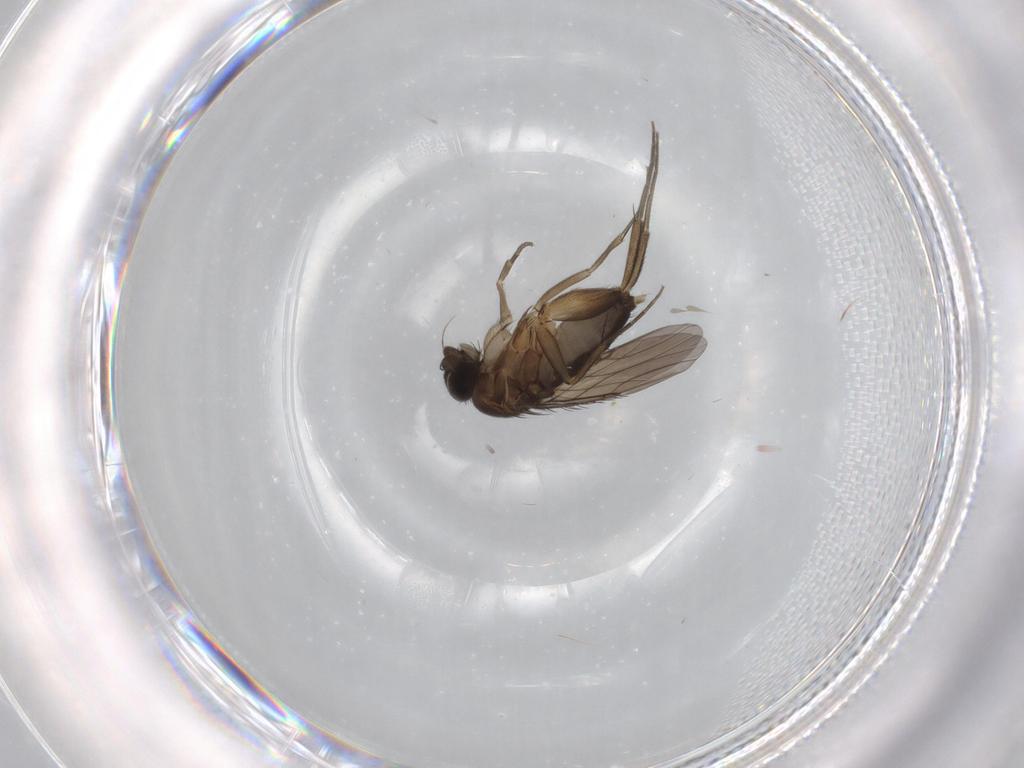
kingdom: Animalia
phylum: Arthropoda
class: Insecta
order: Diptera
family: Phoridae
